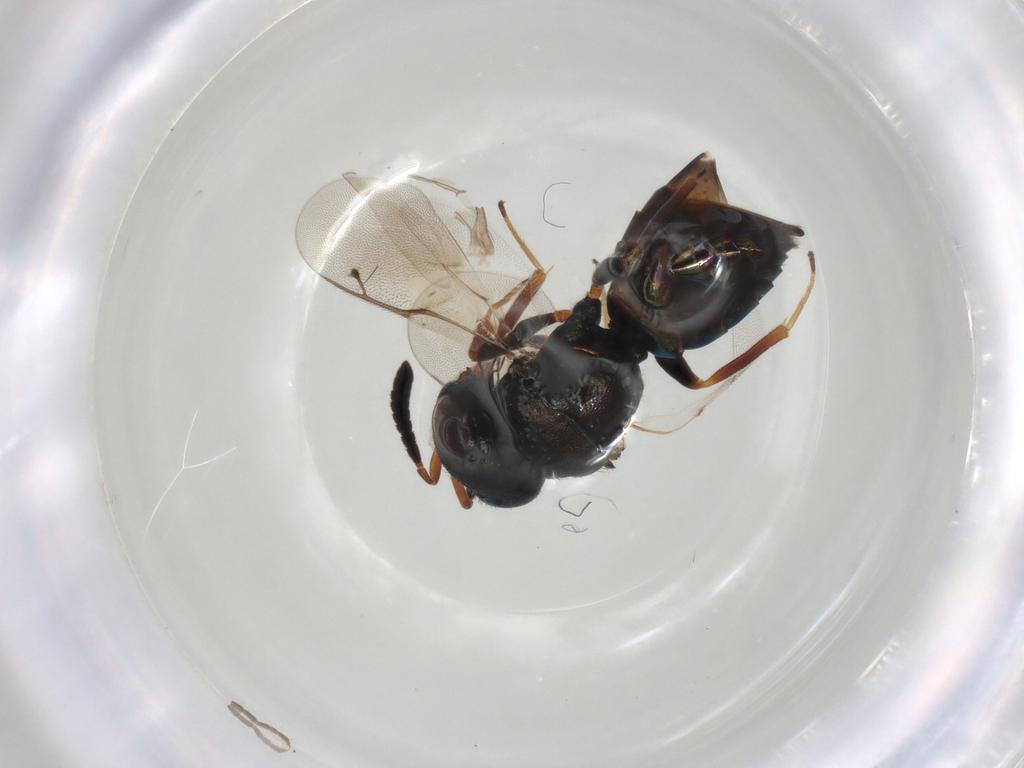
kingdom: Animalia
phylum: Arthropoda
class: Insecta
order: Hymenoptera
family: Pteromalidae
